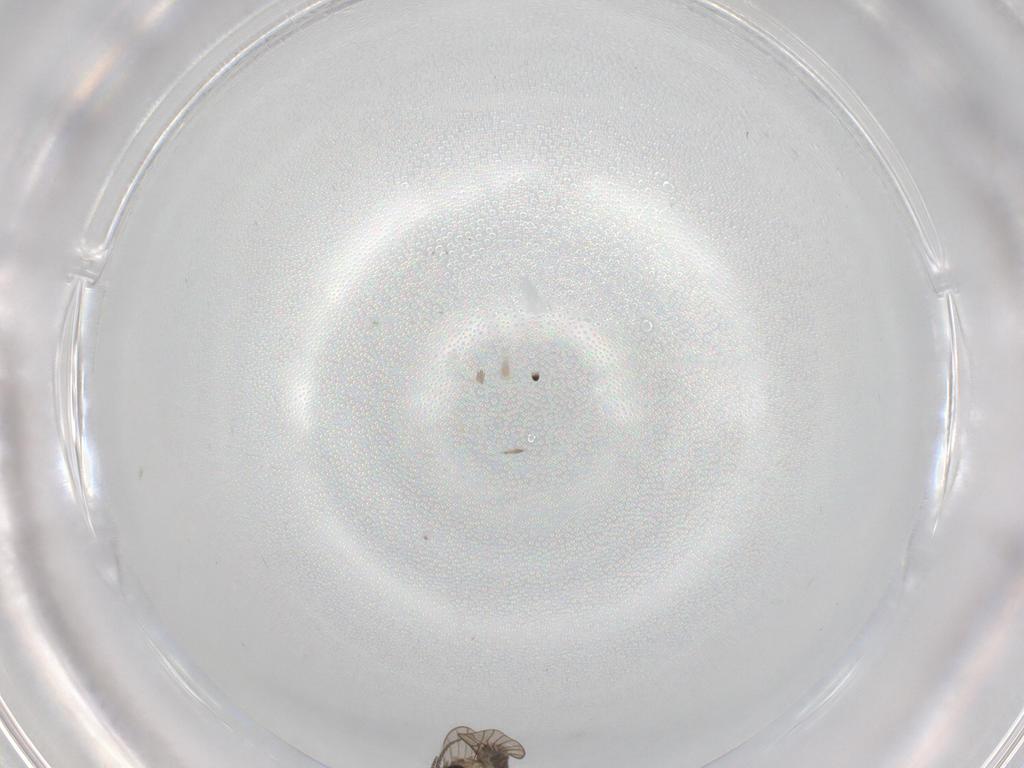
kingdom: Animalia
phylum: Arthropoda
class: Insecta
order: Diptera
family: Psychodidae
